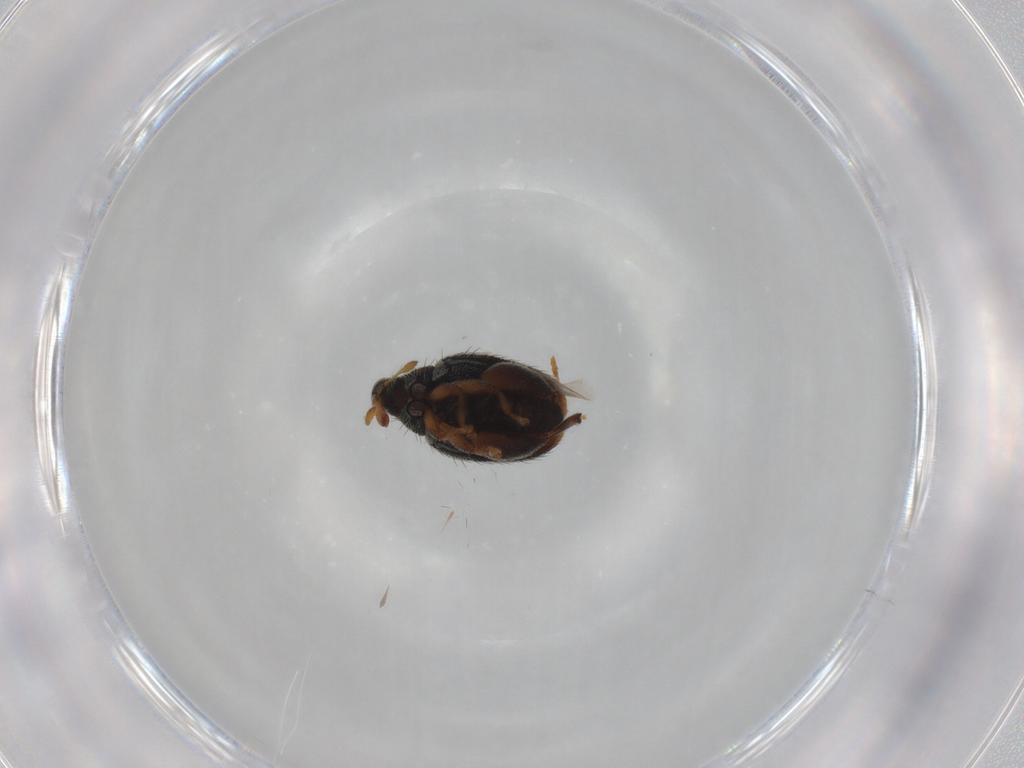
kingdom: Animalia
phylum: Arthropoda
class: Insecta
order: Coleoptera
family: Curculionidae
